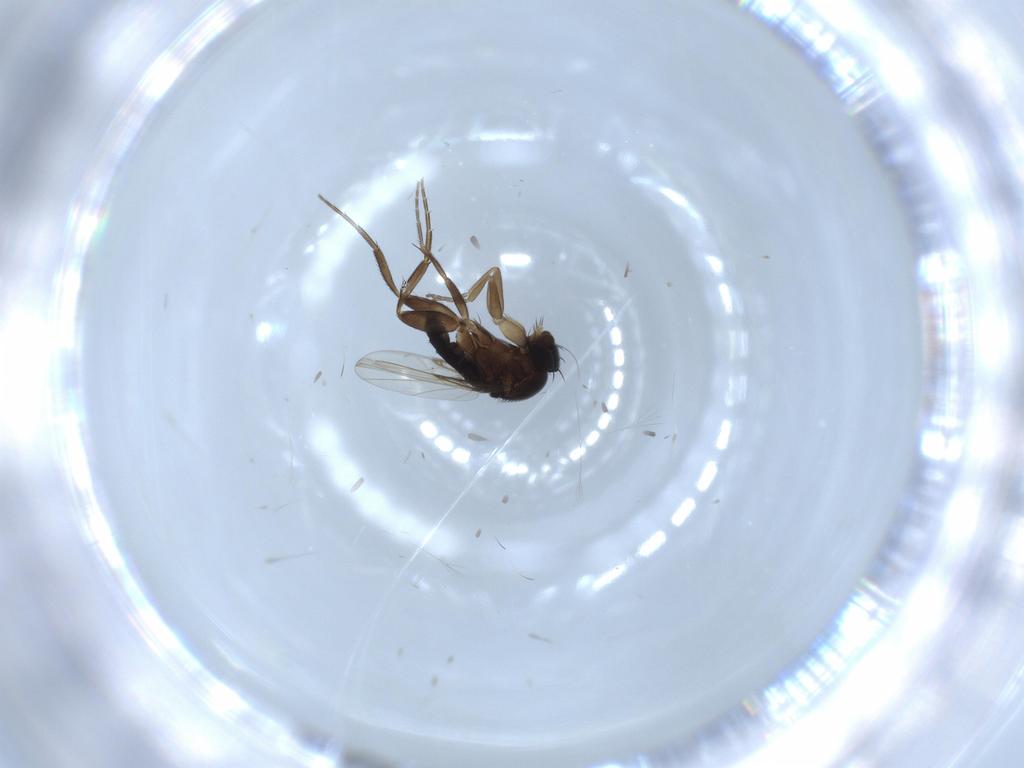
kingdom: Animalia
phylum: Arthropoda
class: Insecta
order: Diptera
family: Phoridae
